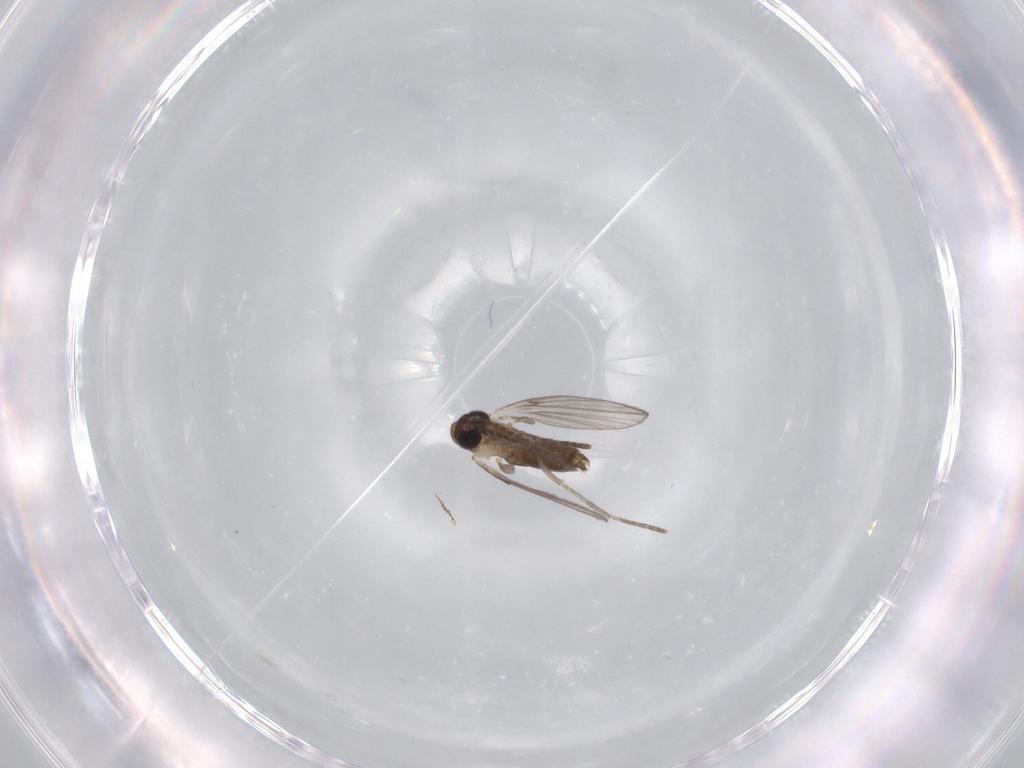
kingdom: Animalia
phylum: Arthropoda
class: Insecta
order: Diptera
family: Psychodidae
